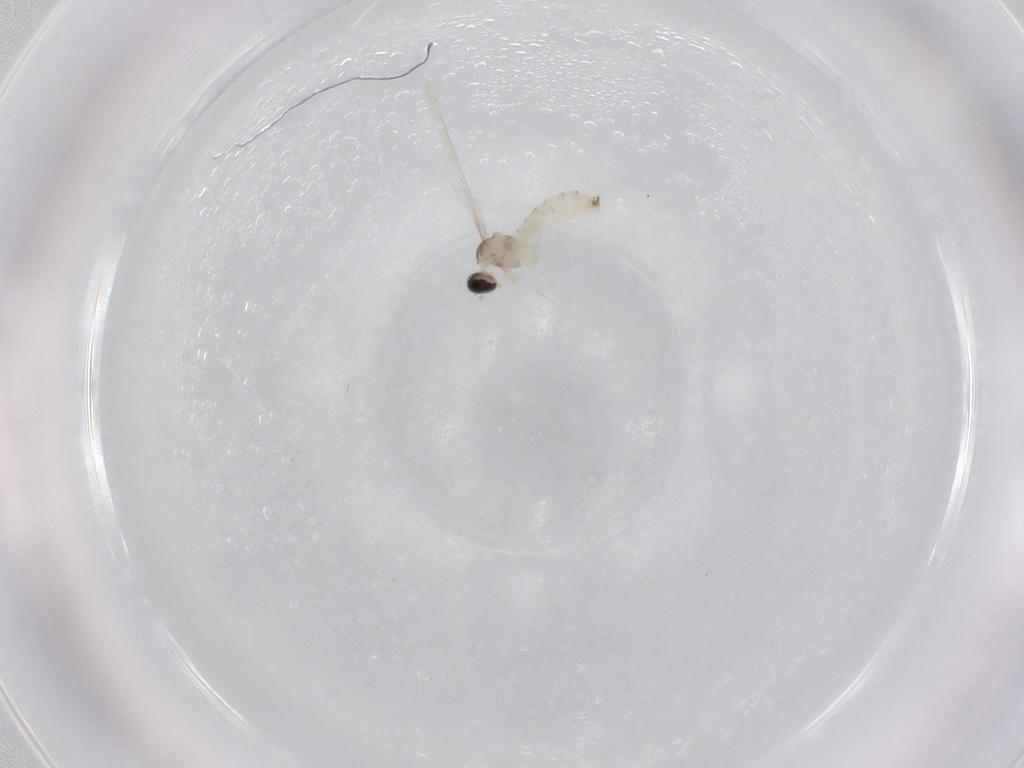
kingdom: Animalia
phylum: Arthropoda
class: Insecta
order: Diptera
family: Cecidomyiidae
